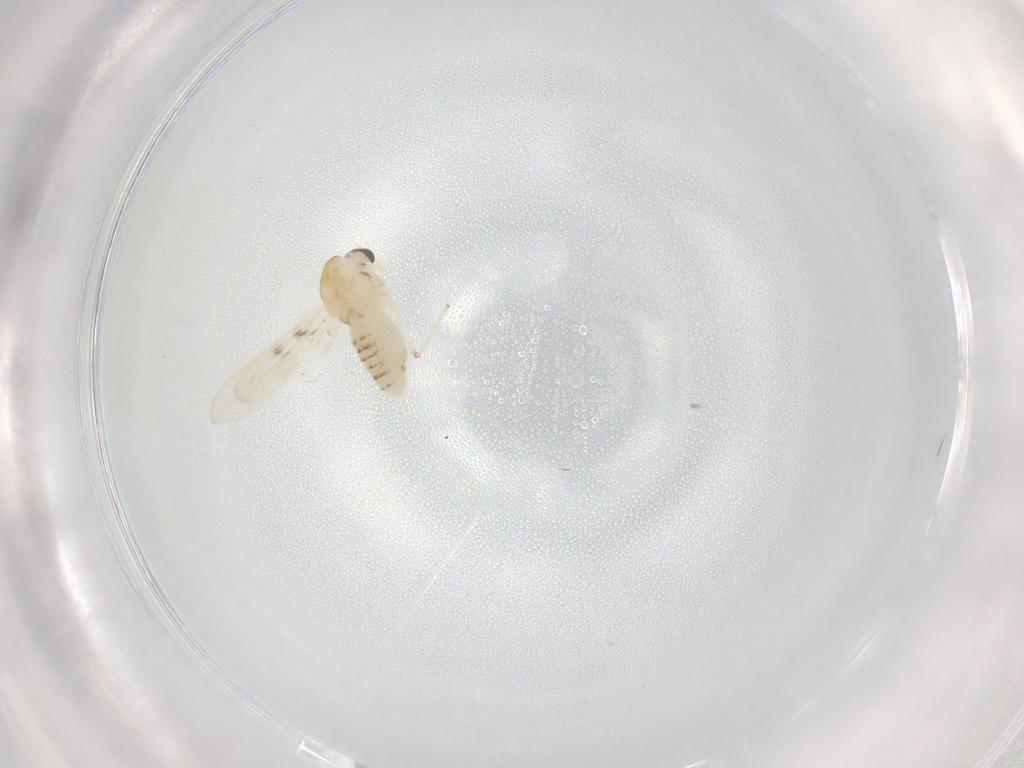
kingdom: Animalia
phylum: Arthropoda
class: Insecta
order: Diptera
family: Chironomidae
